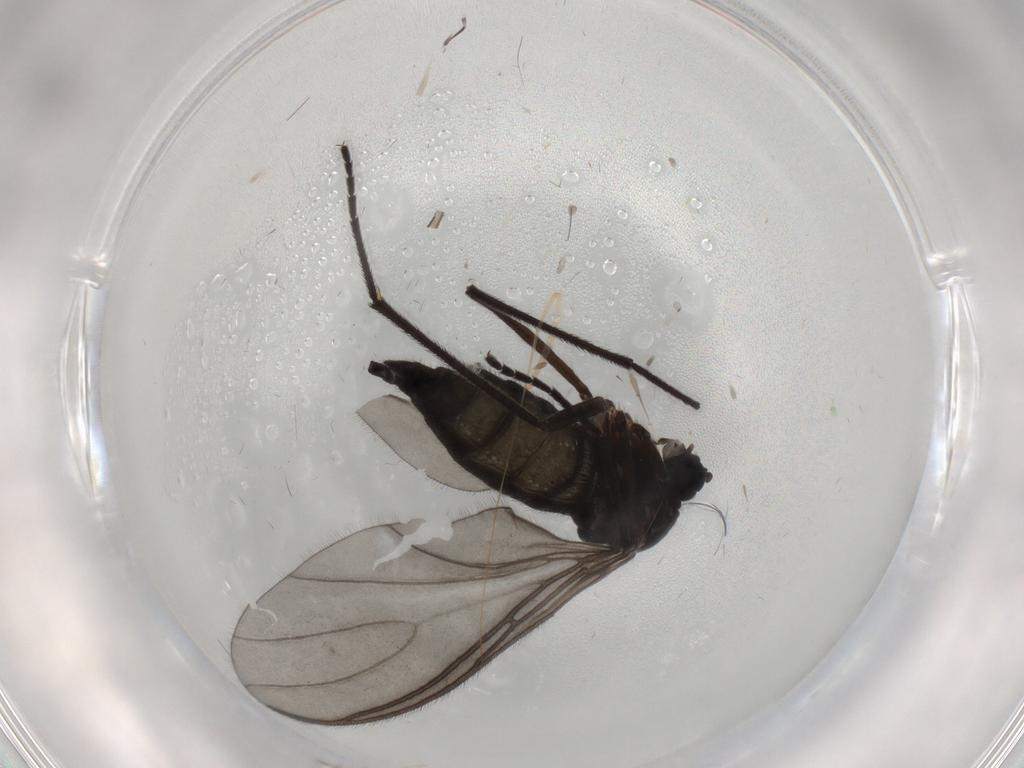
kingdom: Animalia
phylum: Arthropoda
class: Insecta
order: Diptera
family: Sciaridae
